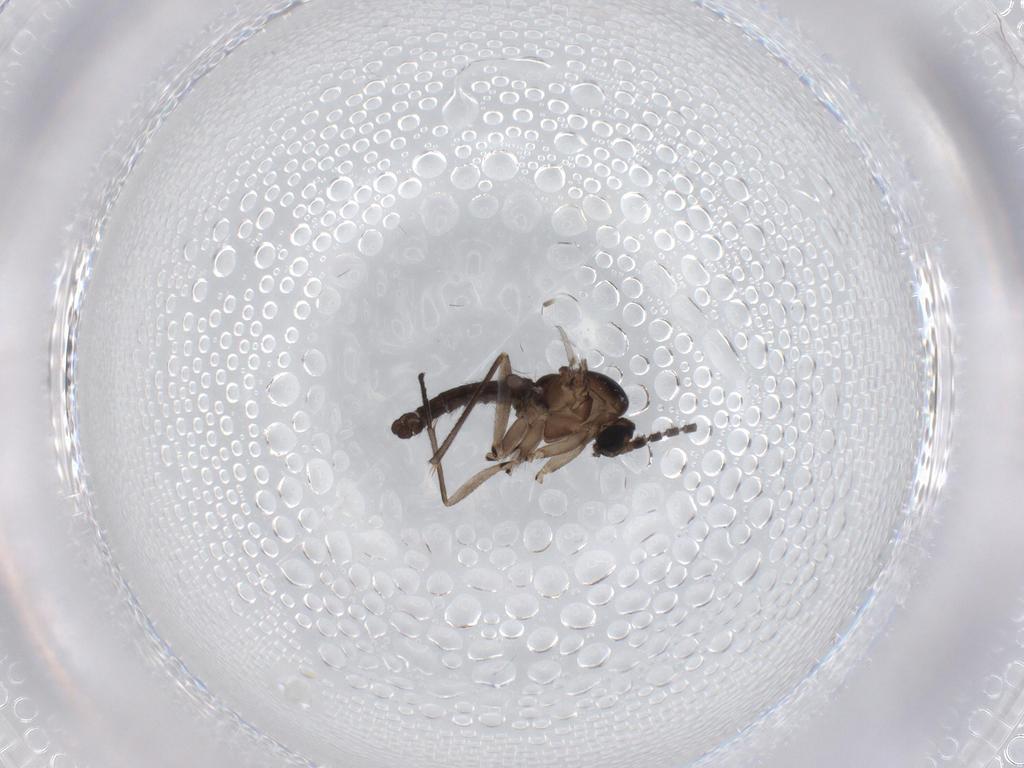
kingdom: Animalia
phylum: Arthropoda
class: Insecta
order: Diptera
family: Sciaridae
